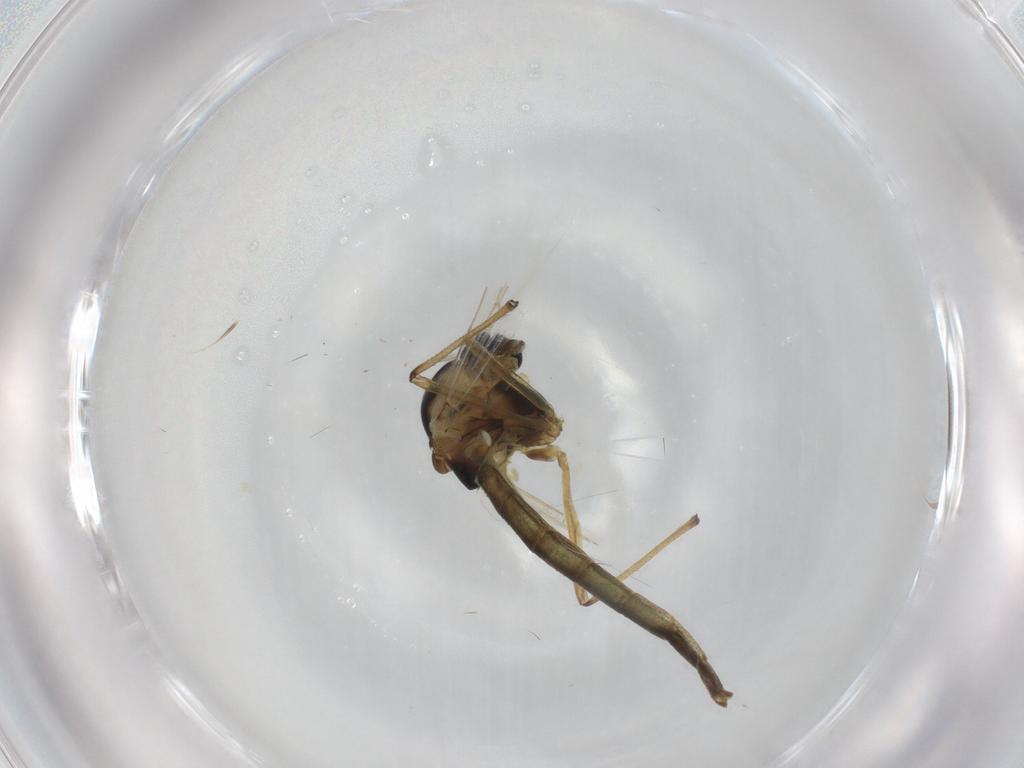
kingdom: Animalia
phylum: Arthropoda
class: Insecta
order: Diptera
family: Chironomidae
